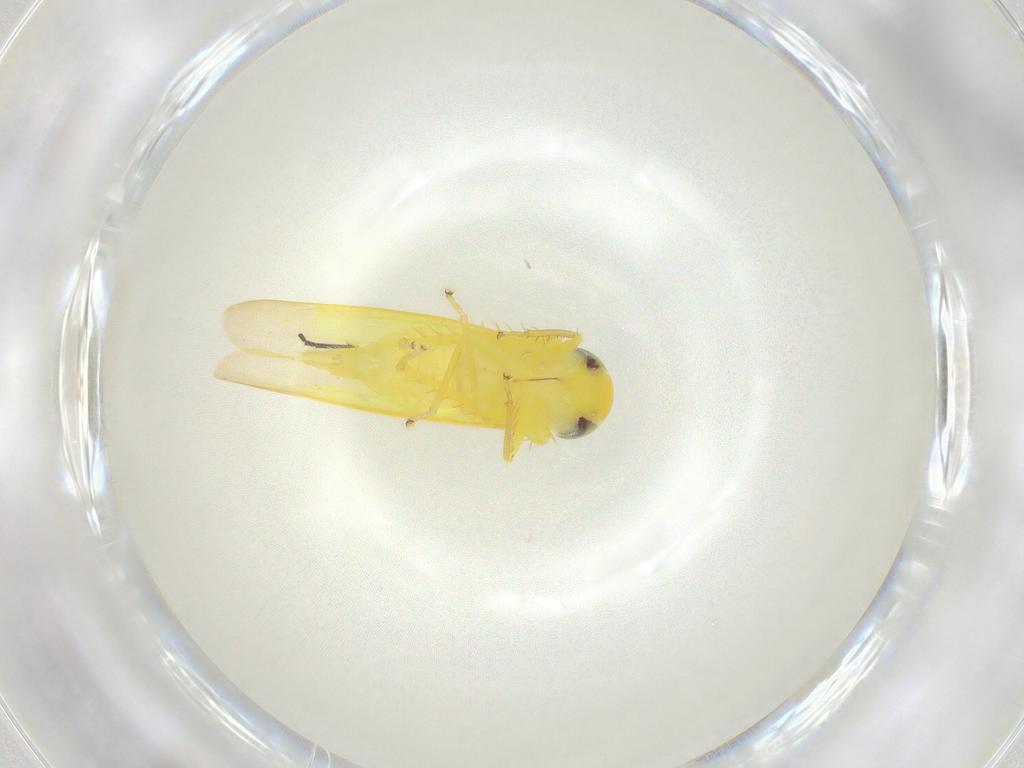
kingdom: Animalia
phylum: Arthropoda
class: Insecta
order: Hemiptera
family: Cicadellidae
